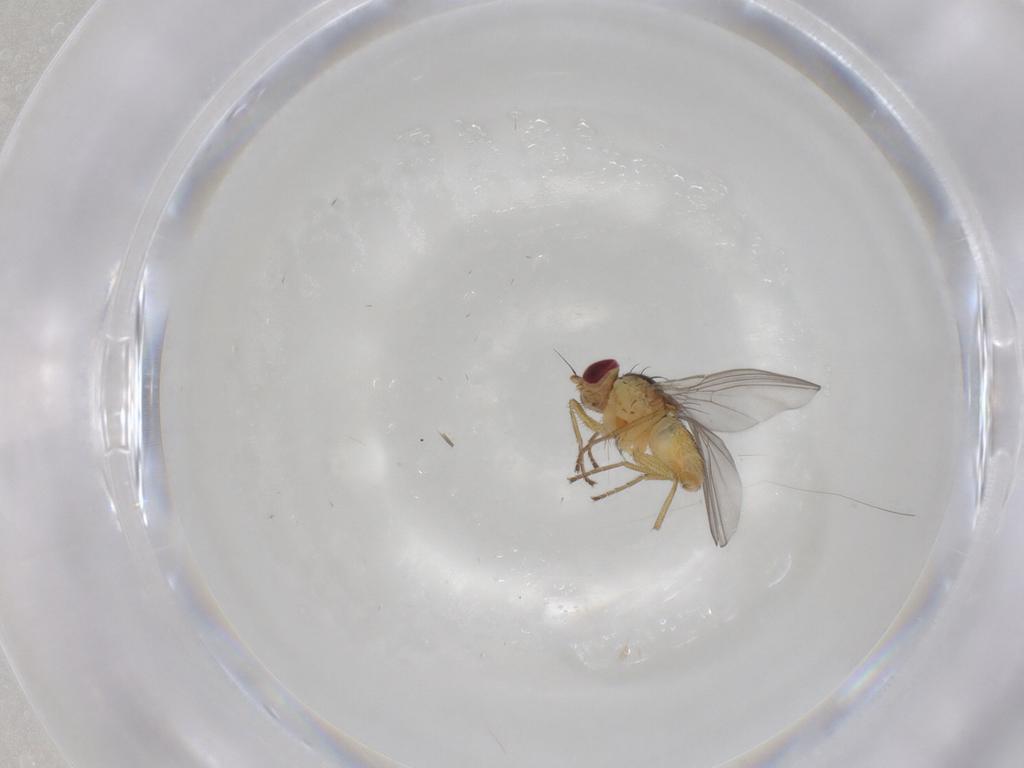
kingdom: Animalia
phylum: Arthropoda
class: Insecta
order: Diptera
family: Agromyzidae
